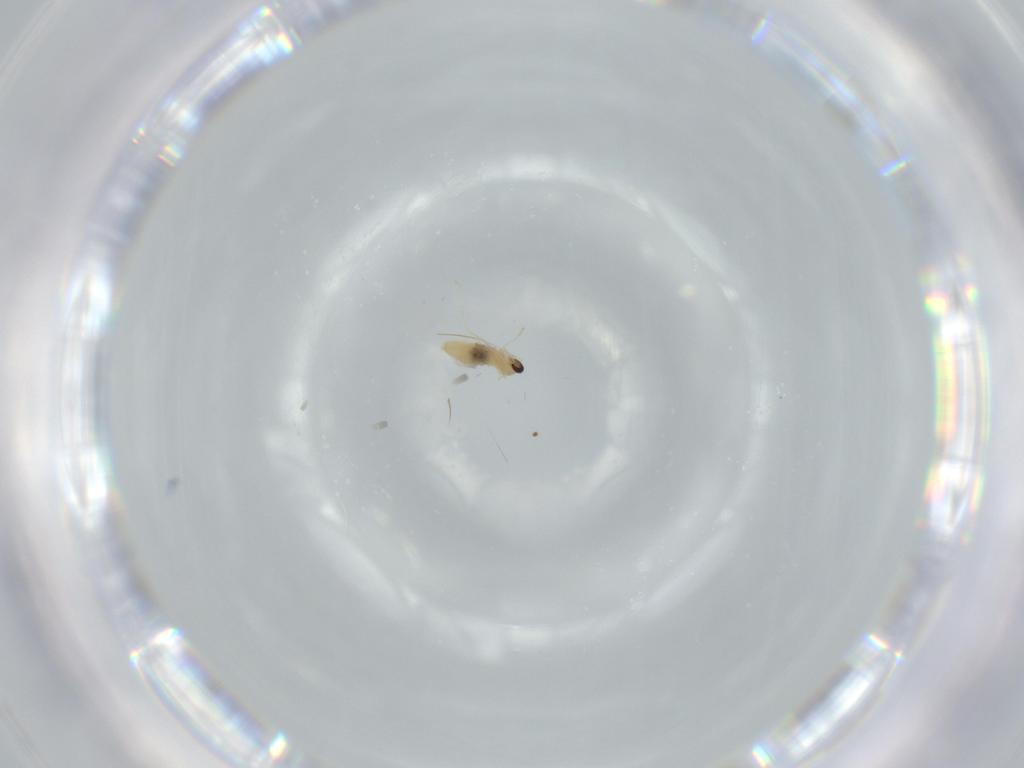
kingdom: Animalia
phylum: Arthropoda
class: Insecta
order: Diptera
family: Cecidomyiidae
